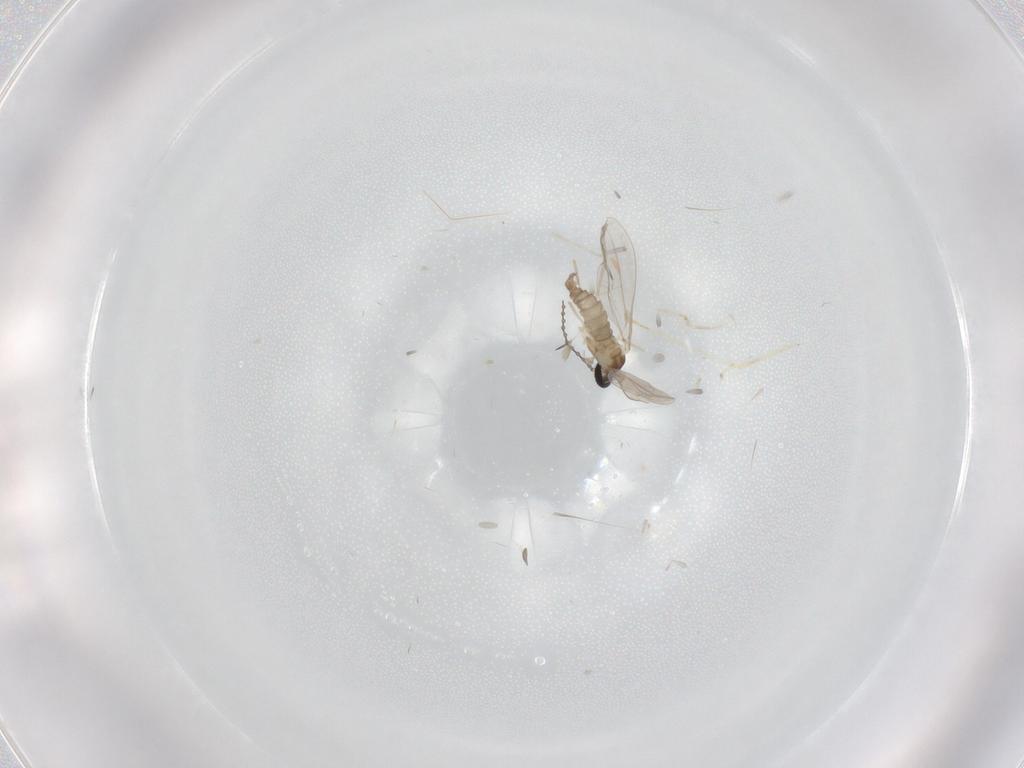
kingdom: Animalia
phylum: Arthropoda
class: Insecta
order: Diptera
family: Cecidomyiidae
